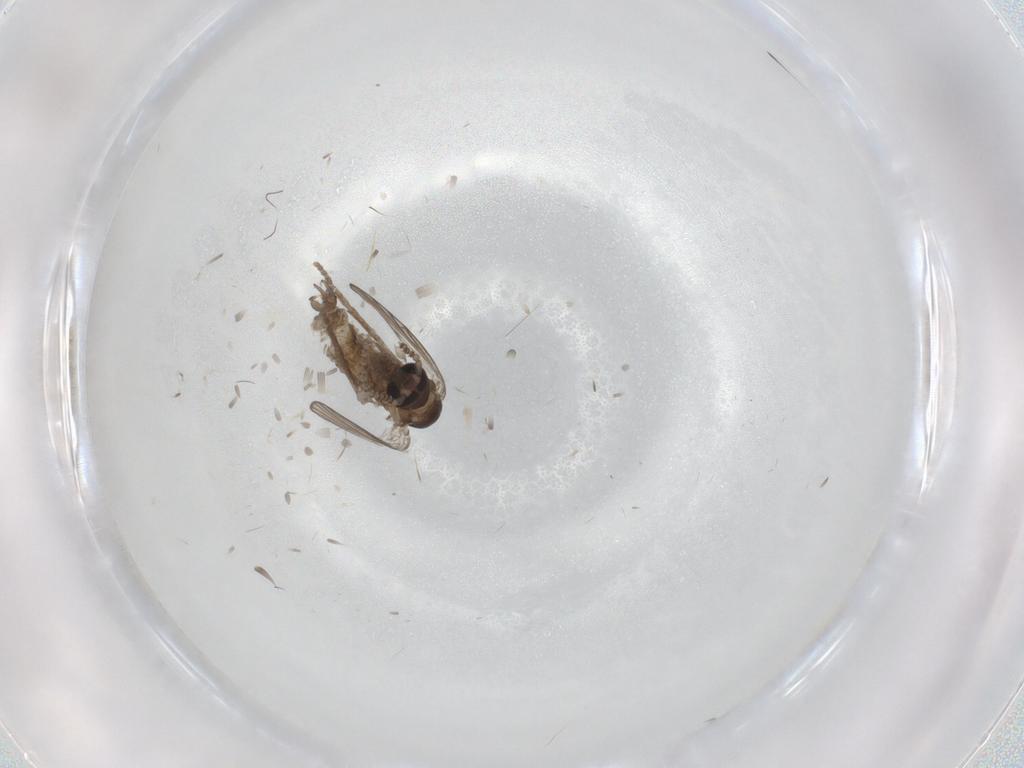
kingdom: Animalia
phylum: Arthropoda
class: Insecta
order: Diptera
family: Psychodidae
